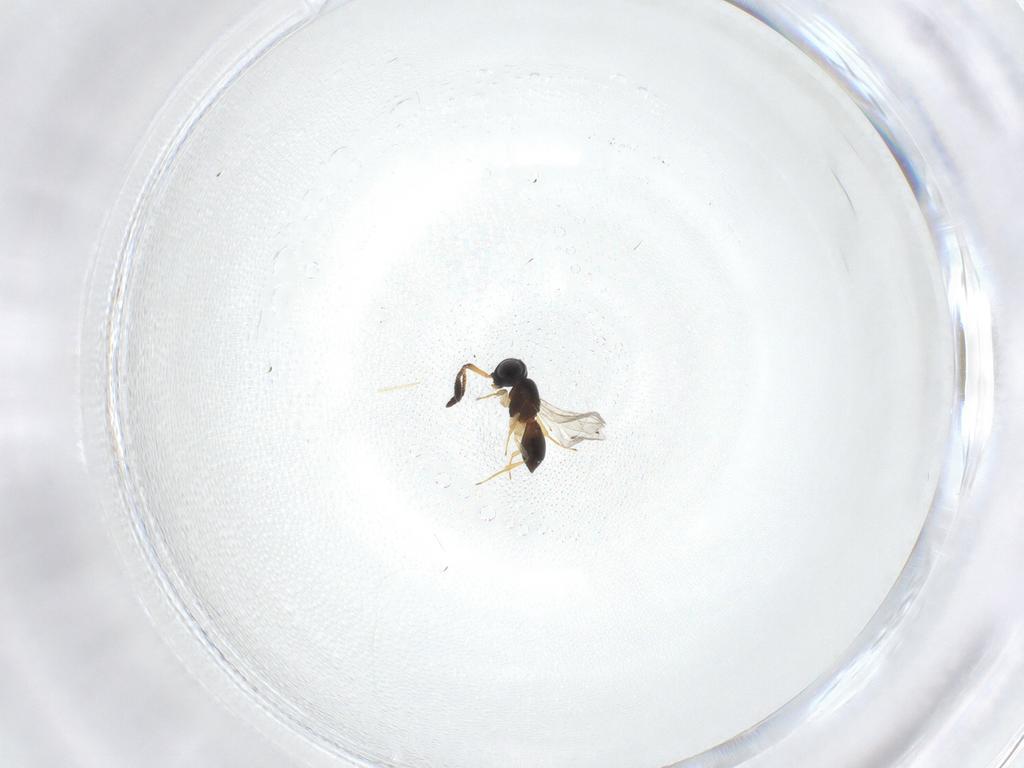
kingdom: Animalia
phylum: Arthropoda
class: Insecta
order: Hymenoptera
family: Scelionidae
